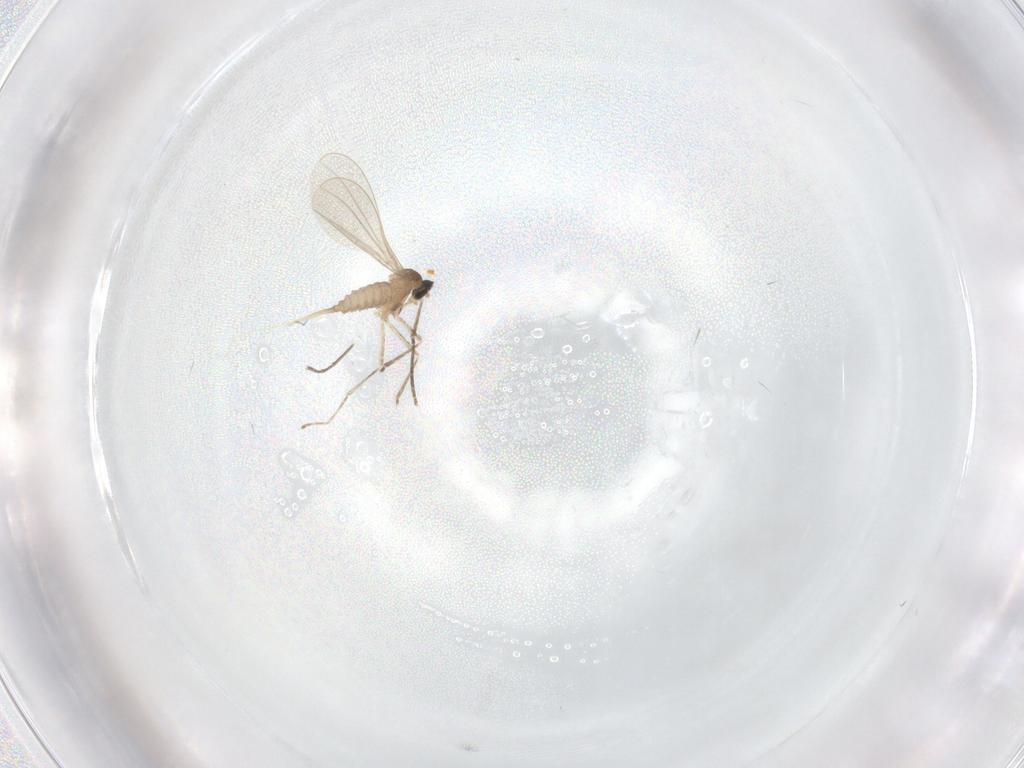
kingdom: Animalia
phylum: Arthropoda
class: Insecta
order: Diptera
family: Cecidomyiidae
